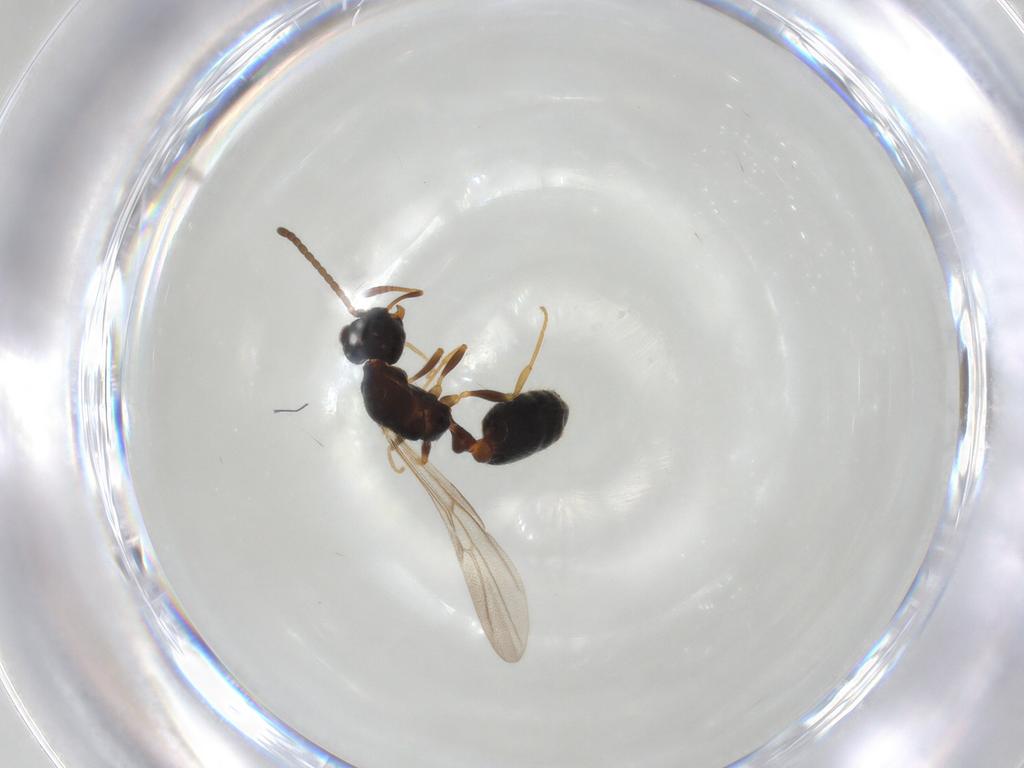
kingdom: Animalia
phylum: Arthropoda
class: Insecta
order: Hymenoptera
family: Formicidae
